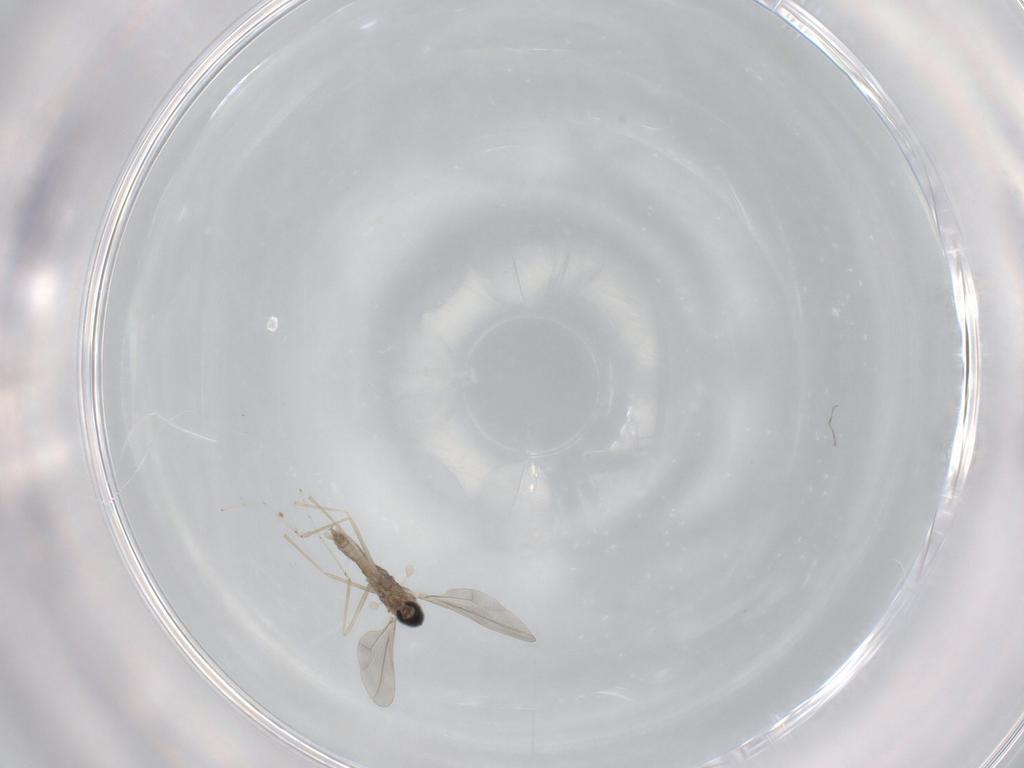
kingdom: Animalia
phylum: Arthropoda
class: Insecta
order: Diptera
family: Cecidomyiidae
